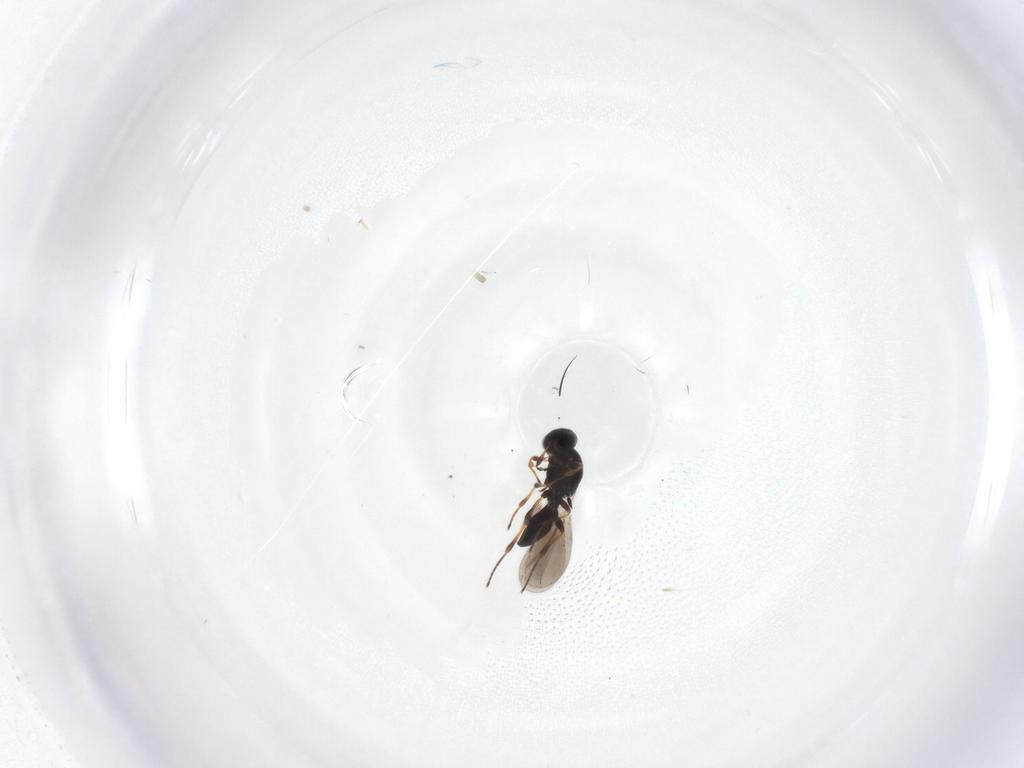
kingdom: Animalia
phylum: Arthropoda
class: Insecta
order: Hymenoptera
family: Platygastridae
